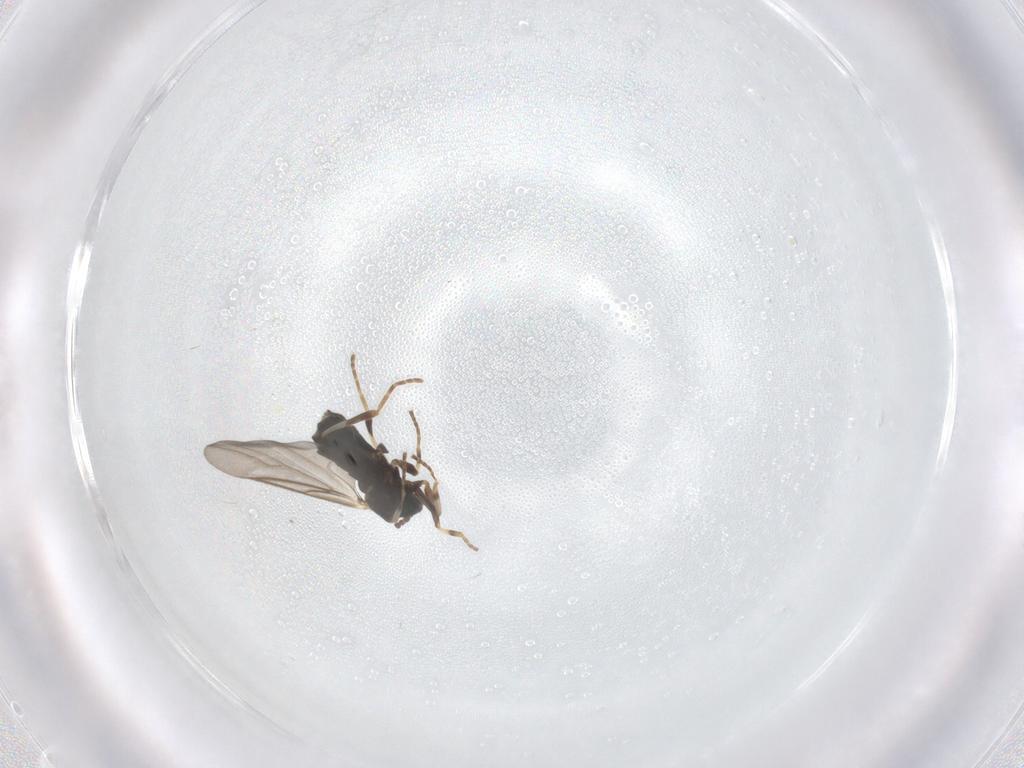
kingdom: Animalia
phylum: Arthropoda
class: Insecta
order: Diptera
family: Scatopsidae
